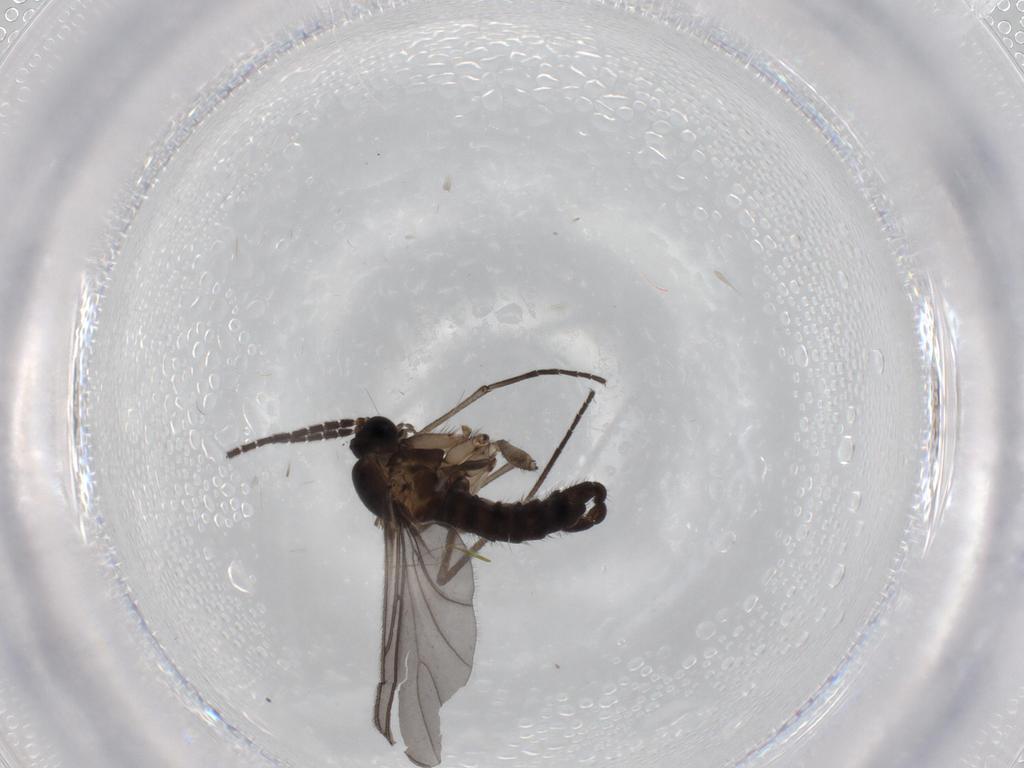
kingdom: Animalia
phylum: Arthropoda
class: Insecta
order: Diptera
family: Sciaridae
